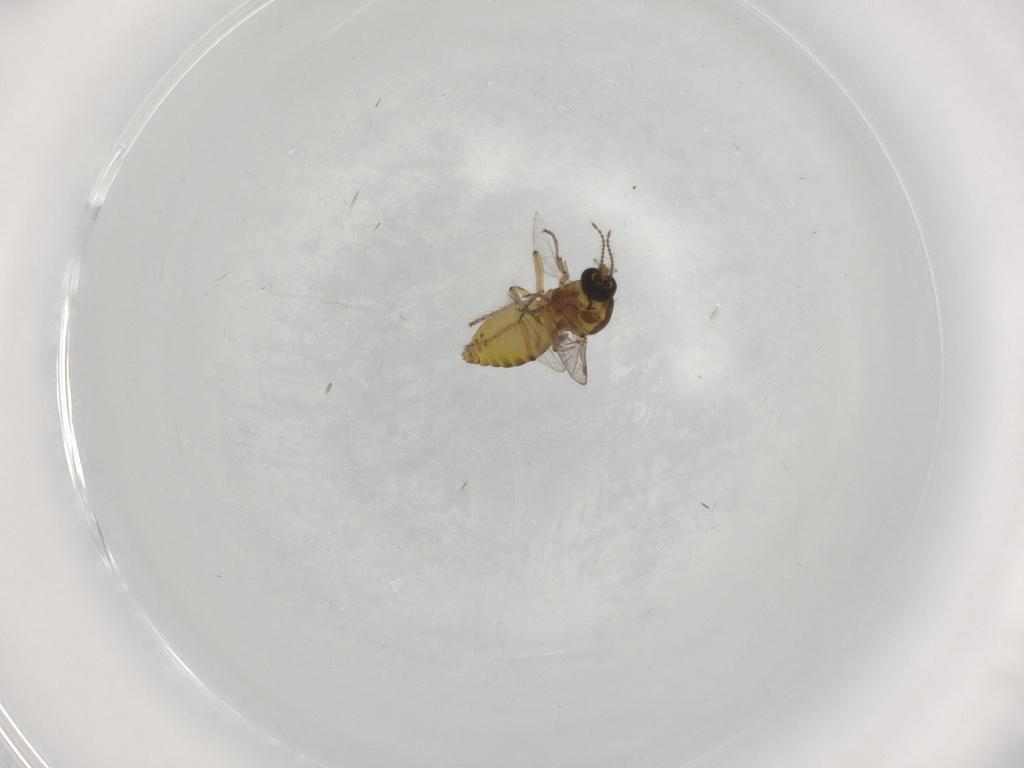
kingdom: Animalia
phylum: Arthropoda
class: Insecta
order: Diptera
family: Ceratopogonidae
